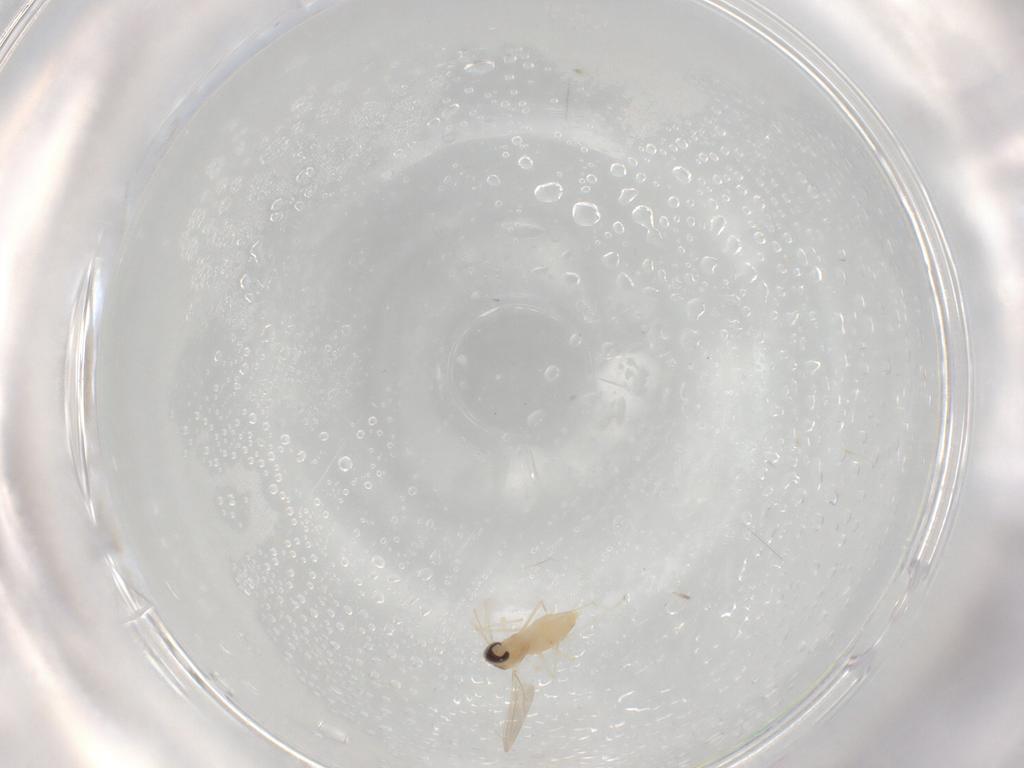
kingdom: Animalia
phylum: Arthropoda
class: Insecta
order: Diptera
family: Cecidomyiidae
